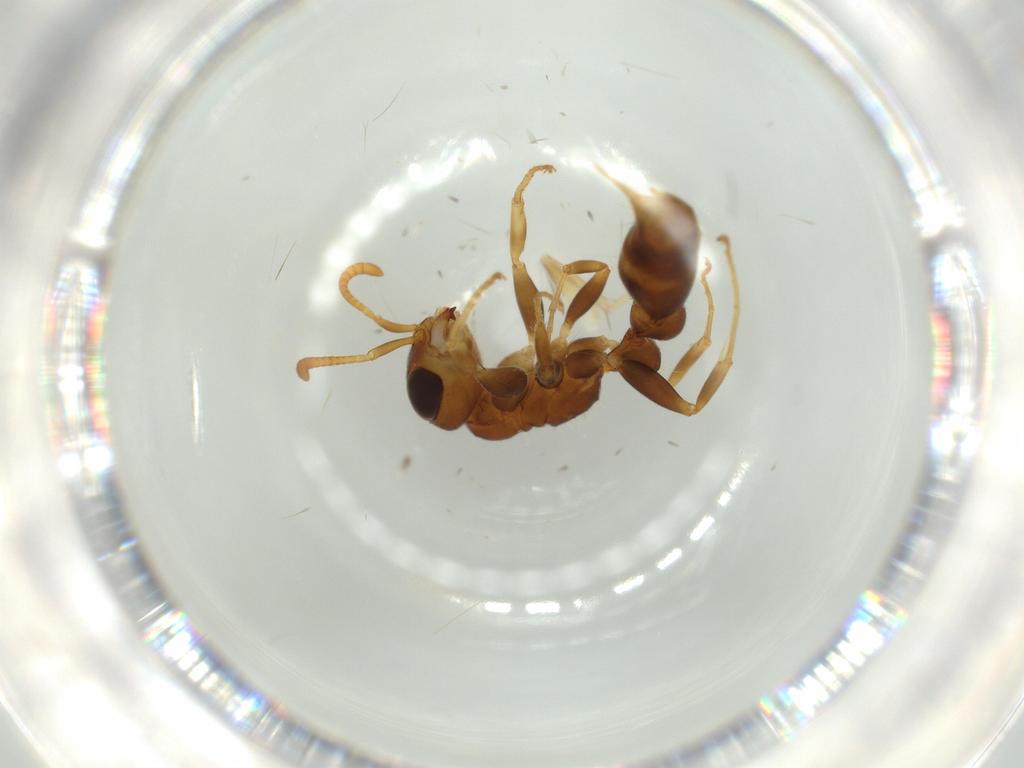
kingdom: Animalia
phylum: Arthropoda
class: Insecta
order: Hymenoptera
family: Formicidae
